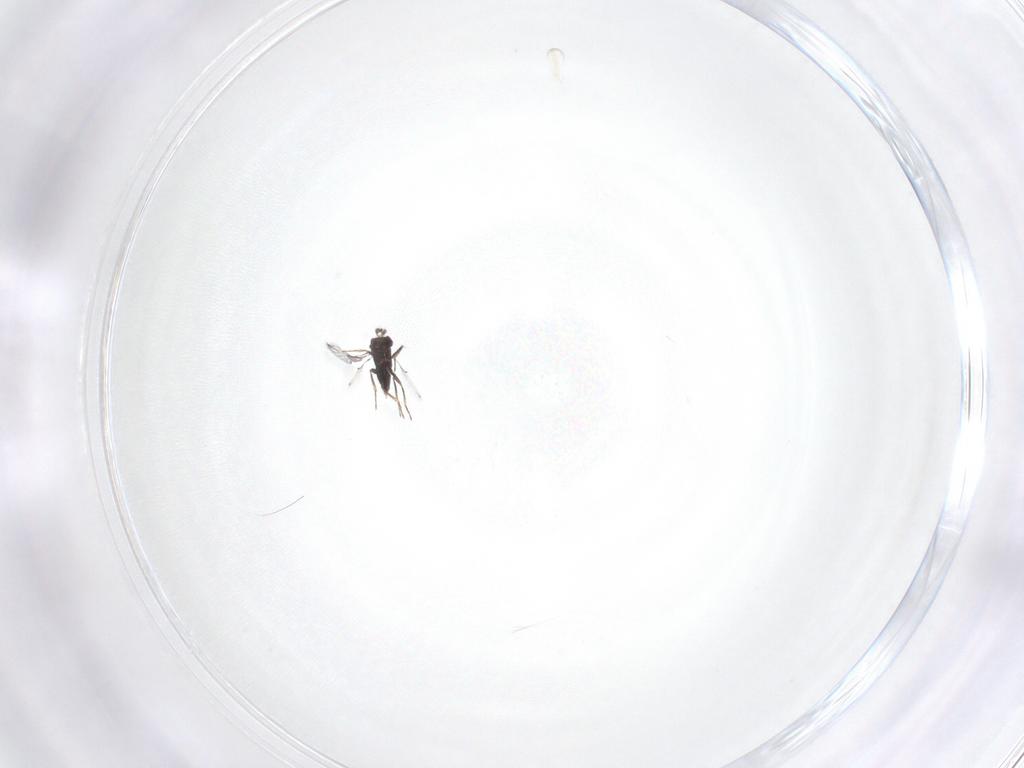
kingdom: Animalia
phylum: Arthropoda
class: Insecta
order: Hymenoptera
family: Trichogrammatidae
